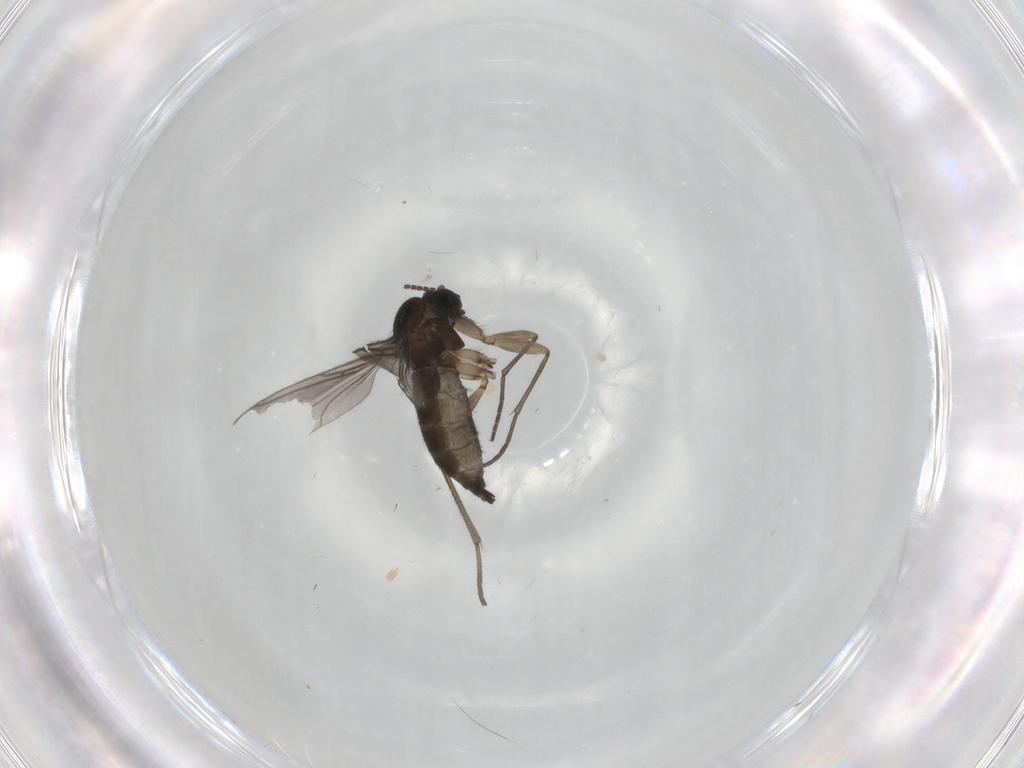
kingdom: Animalia
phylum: Arthropoda
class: Insecta
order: Diptera
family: Sciaridae
